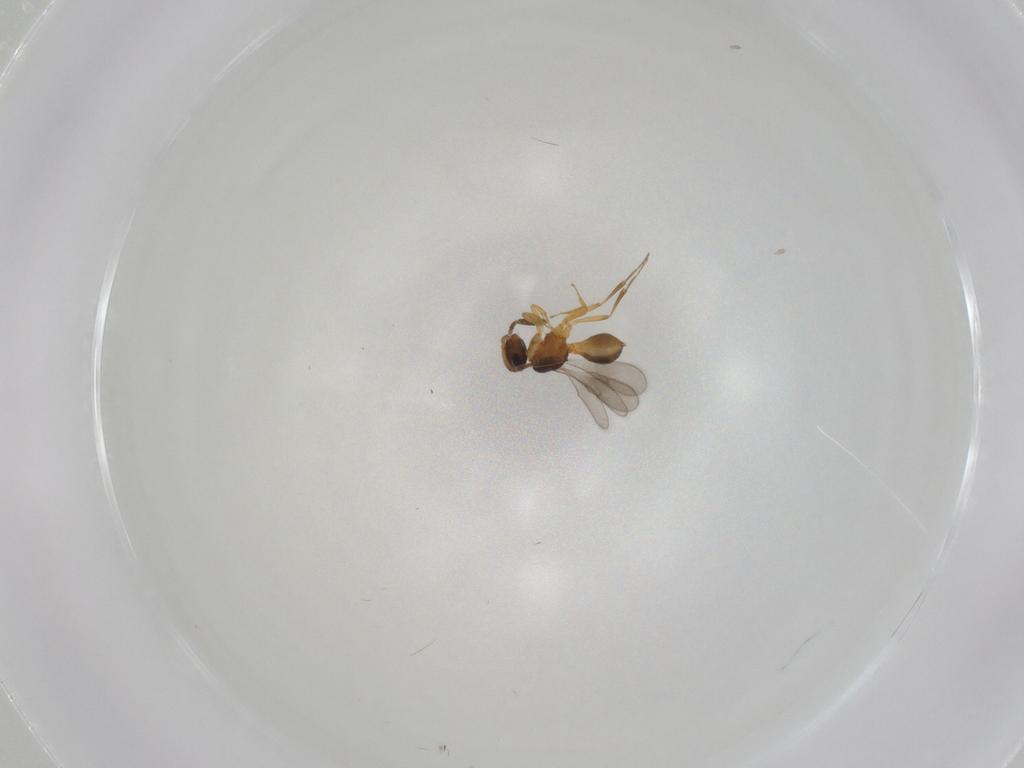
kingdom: Animalia
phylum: Arthropoda
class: Insecta
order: Hymenoptera
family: Scelionidae
